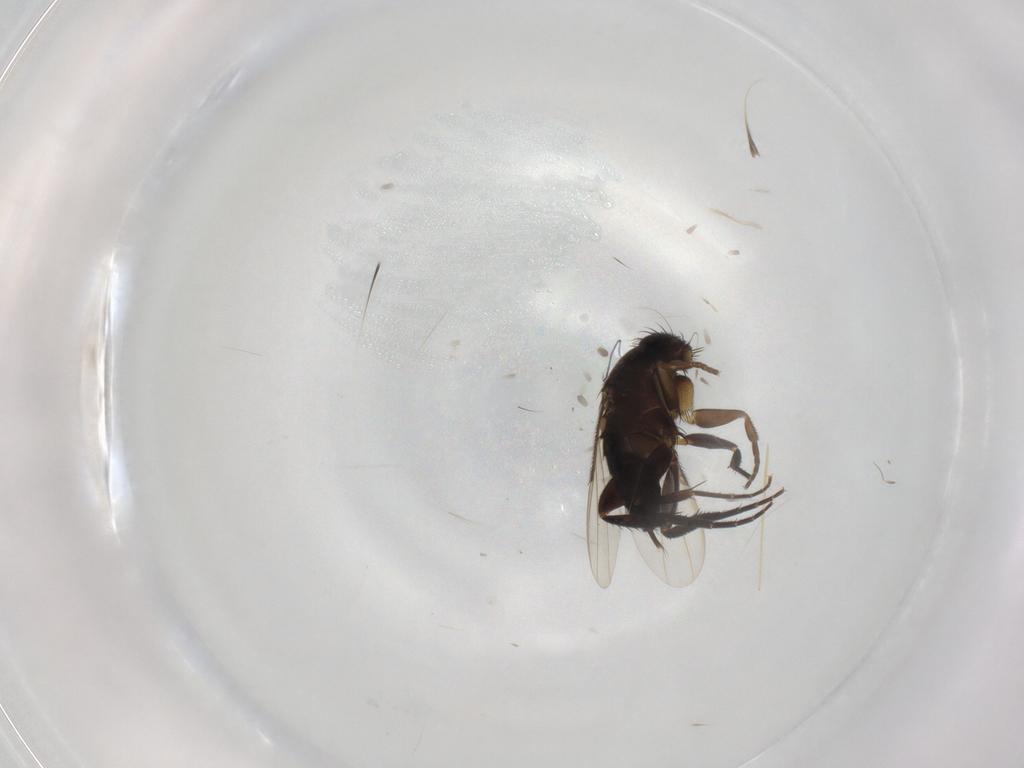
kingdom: Animalia
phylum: Arthropoda
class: Insecta
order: Diptera
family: Phoridae
